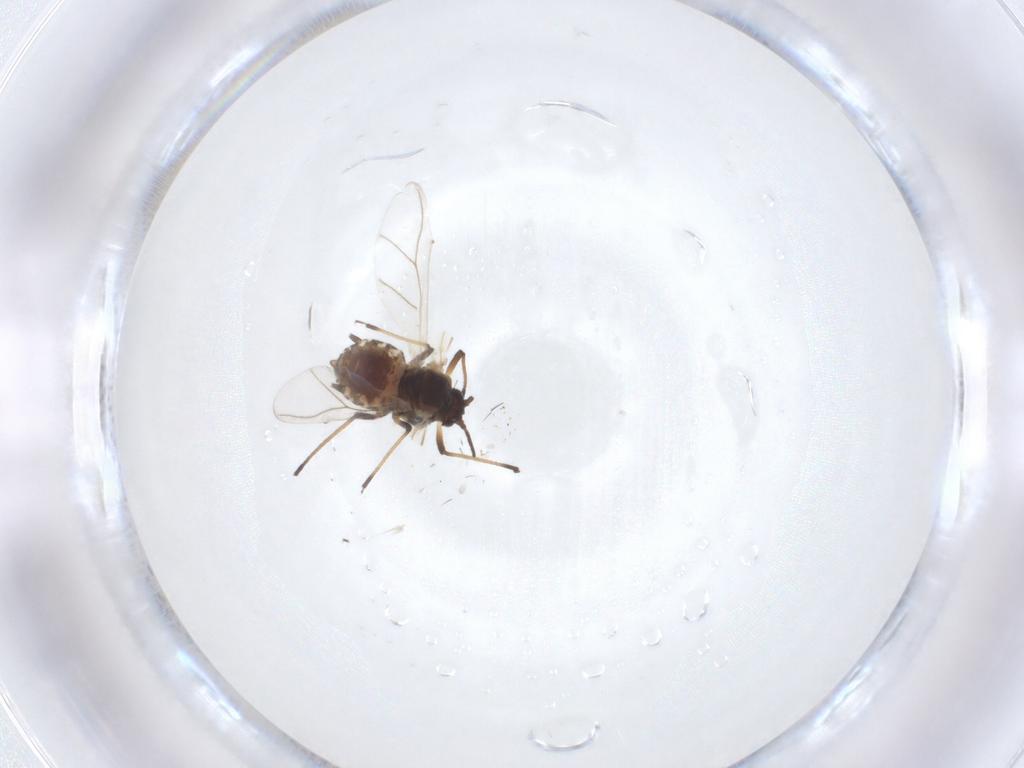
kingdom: Animalia
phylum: Arthropoda
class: Insecta
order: Hemiptera
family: Aphididae
